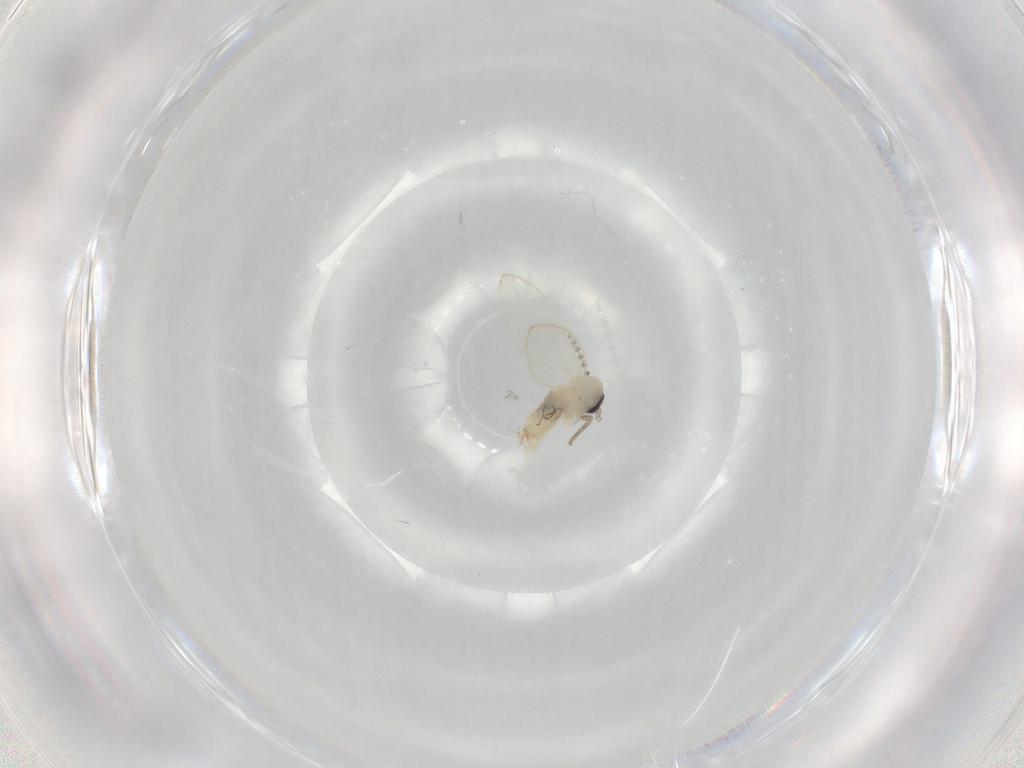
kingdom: Animalia
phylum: Arthropoda
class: Insecta
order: Diptera
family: Psychodidae
